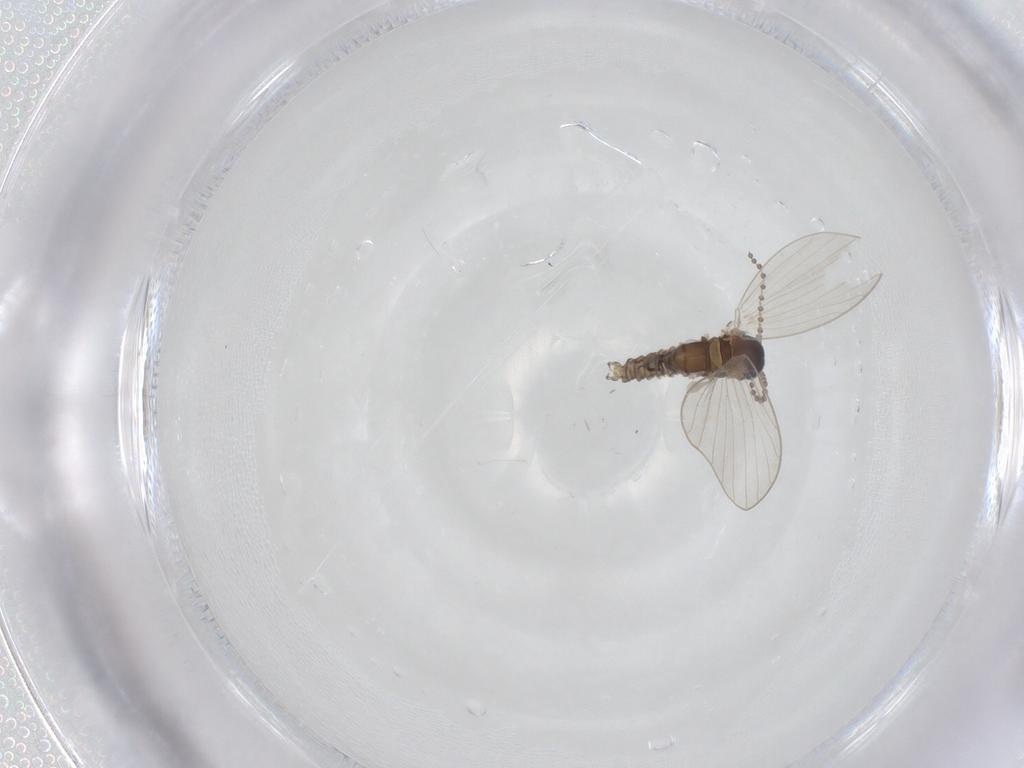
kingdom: Animalia
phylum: Arthropoda
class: Insecta
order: Diptera
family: Psychodidae
